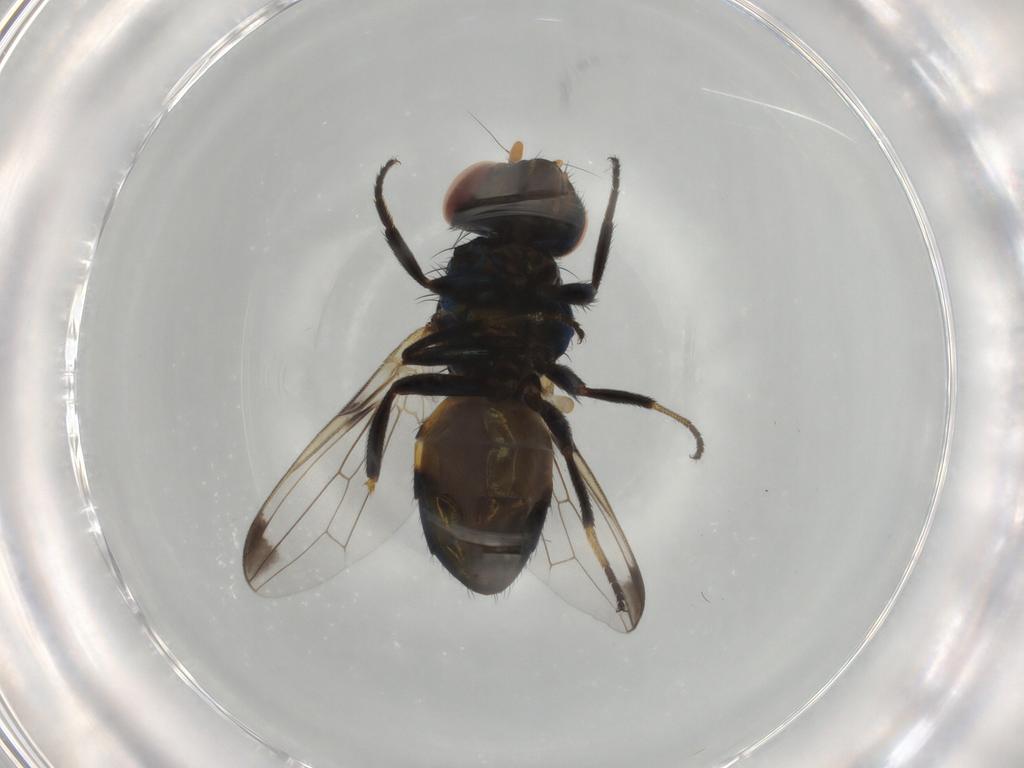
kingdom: Animalia
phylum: Arthropoda
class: Insecta
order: Diptera
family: Ulidiidae
